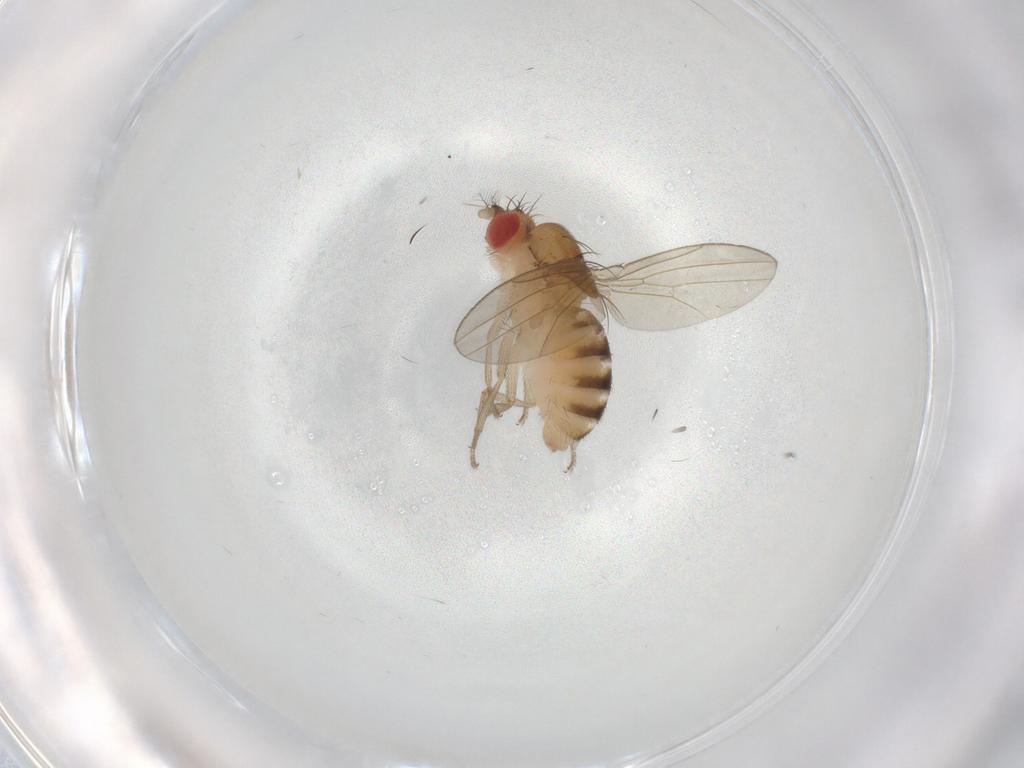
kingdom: Animalia
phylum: Arthropoda
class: Insecta
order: Diptera
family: Drosophilidae
